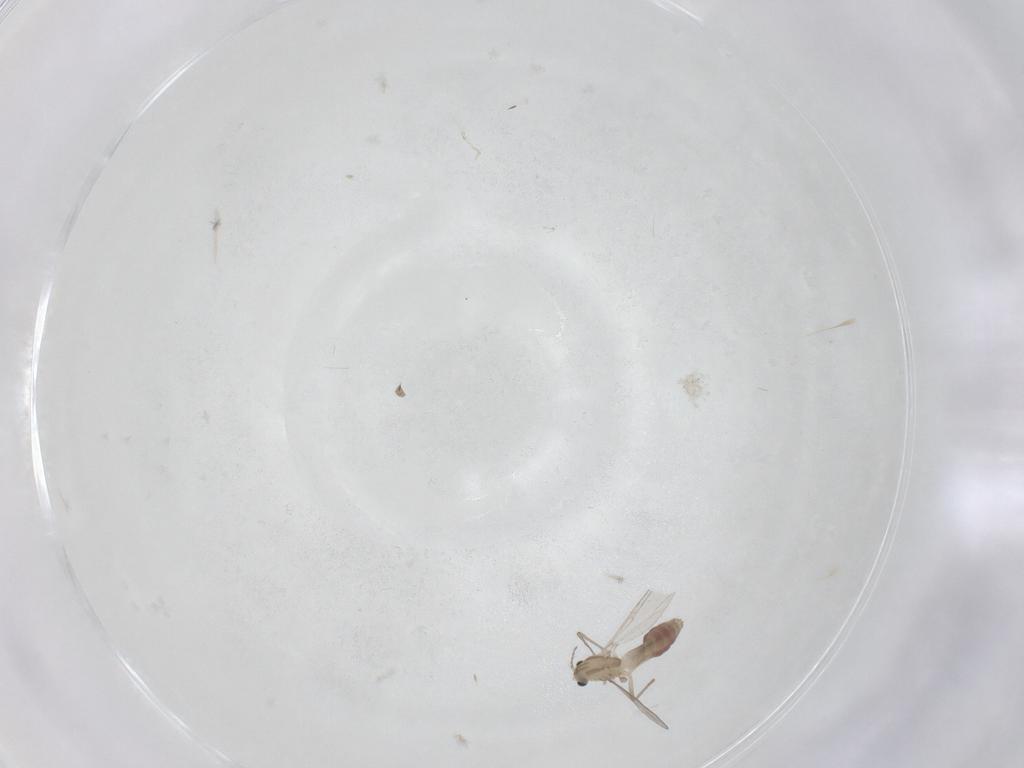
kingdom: Animalia
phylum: Arthropoda
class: Insecta
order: Diptera
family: Chironomidae
